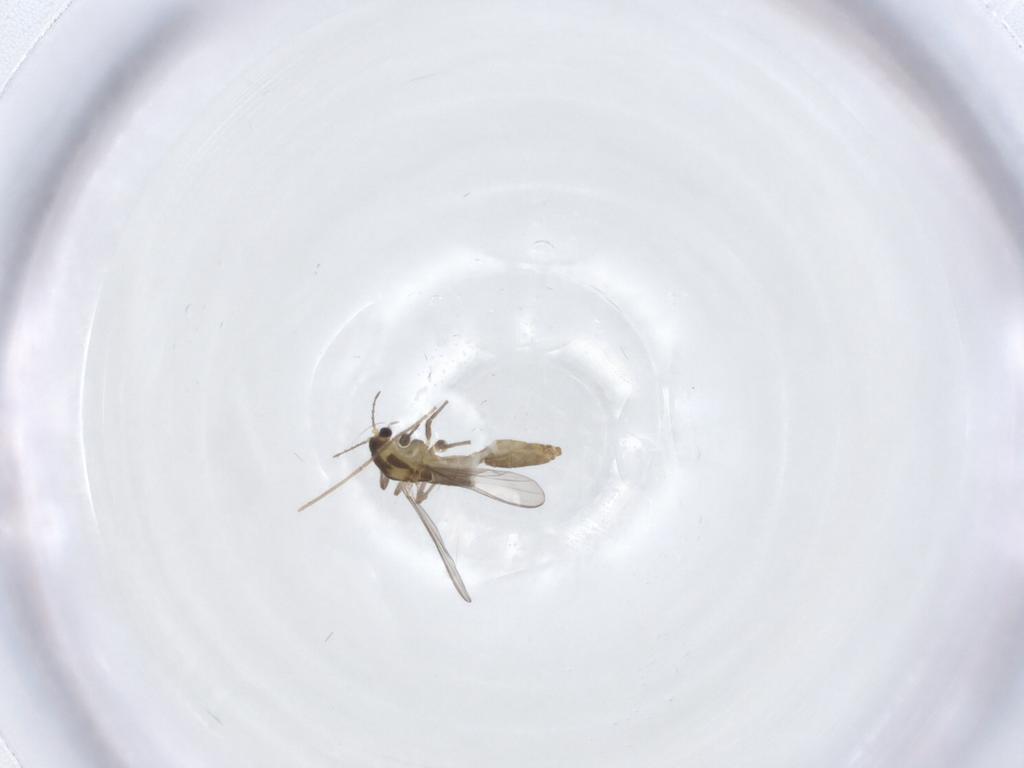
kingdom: Animalia
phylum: Arthropoda
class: Insecta
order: Diptera
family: Chironomidae
